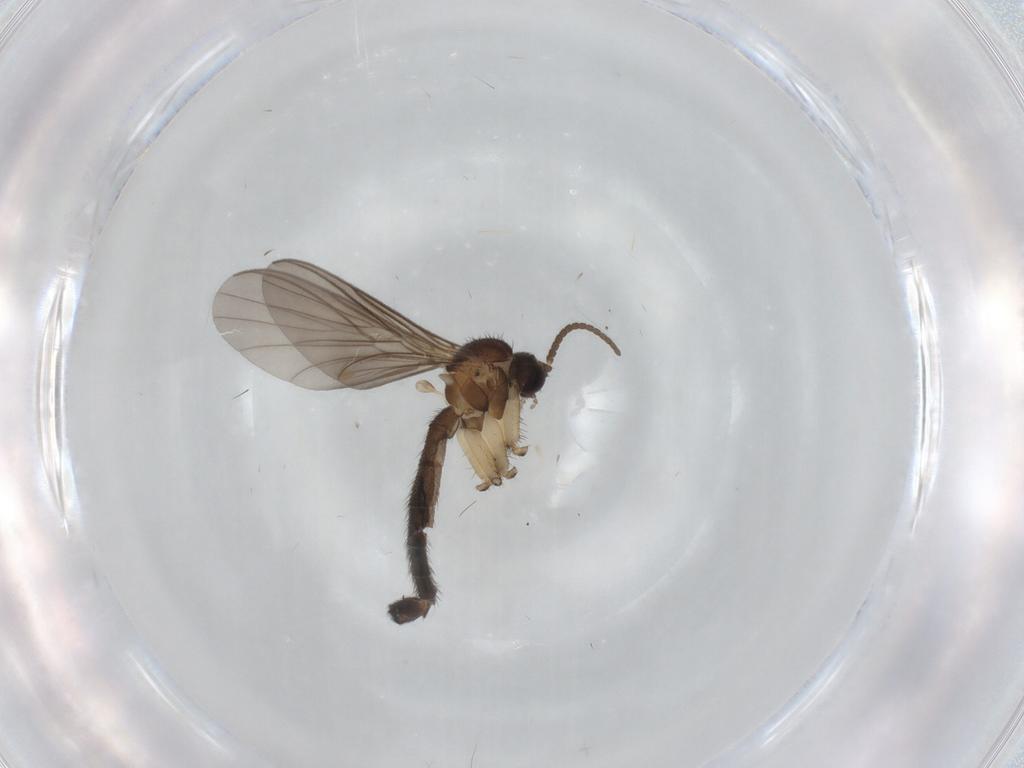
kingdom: Animalia
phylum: Arthropoda
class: Insecta
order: Diptera
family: Keroplatidae
